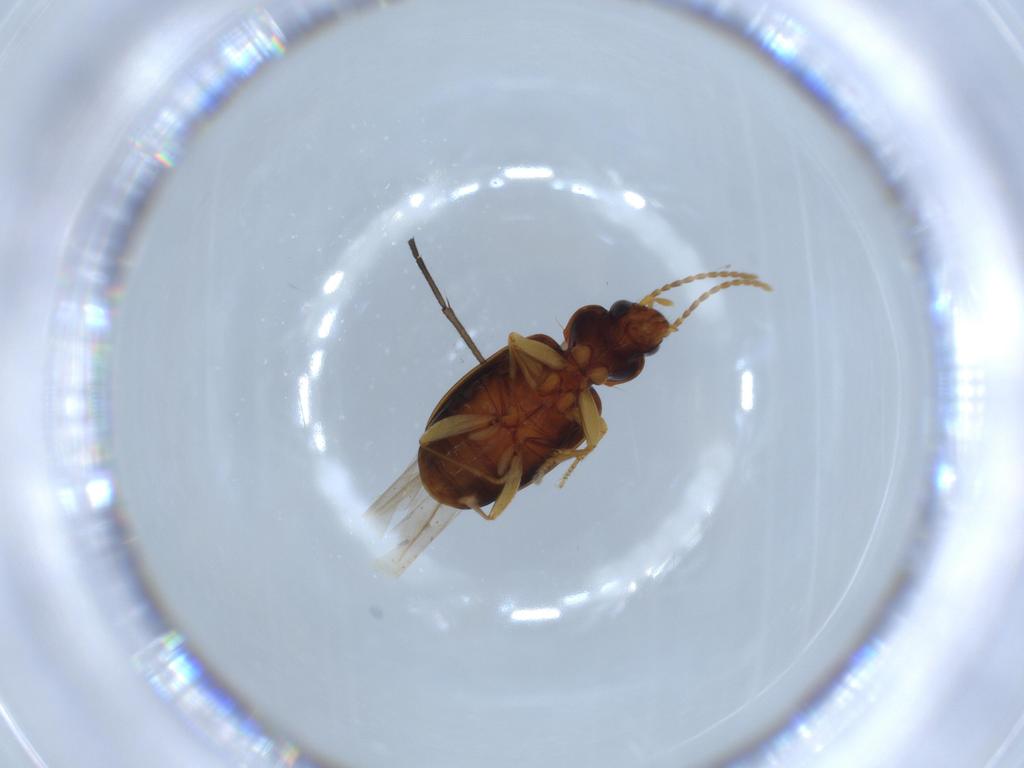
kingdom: Animalia
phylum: Arthropoda
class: Insecta
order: Coleoptera
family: Carabidae
